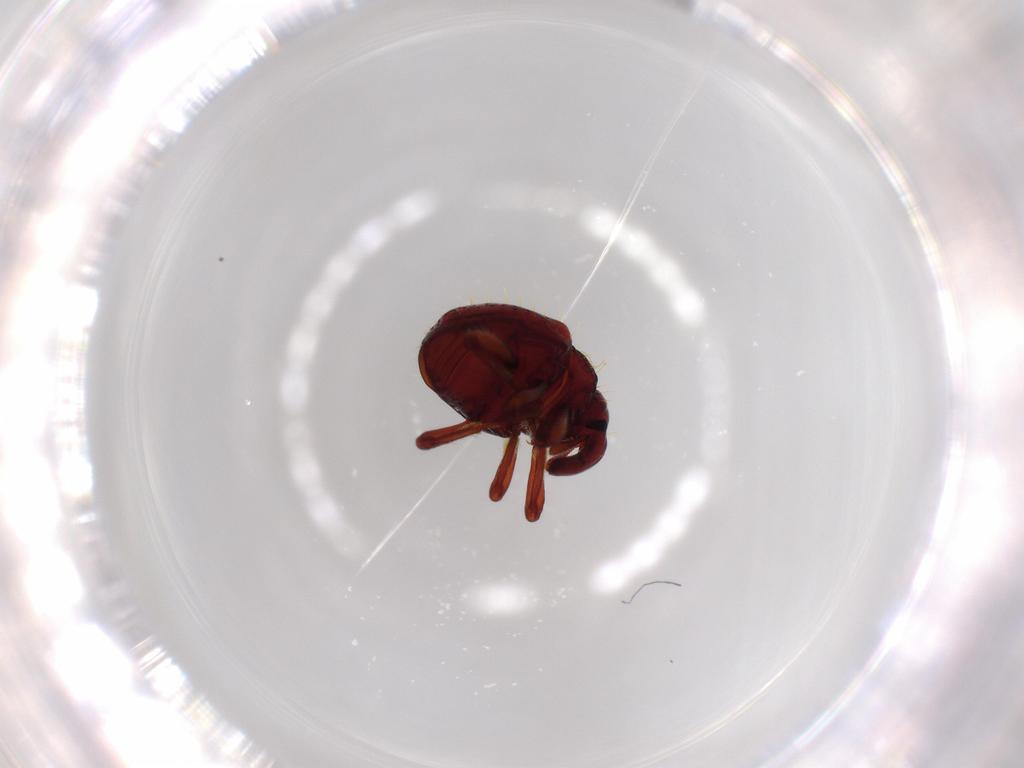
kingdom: Animalia
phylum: Arthropoda
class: Insecta
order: Coleoptera
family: Curculionidae
